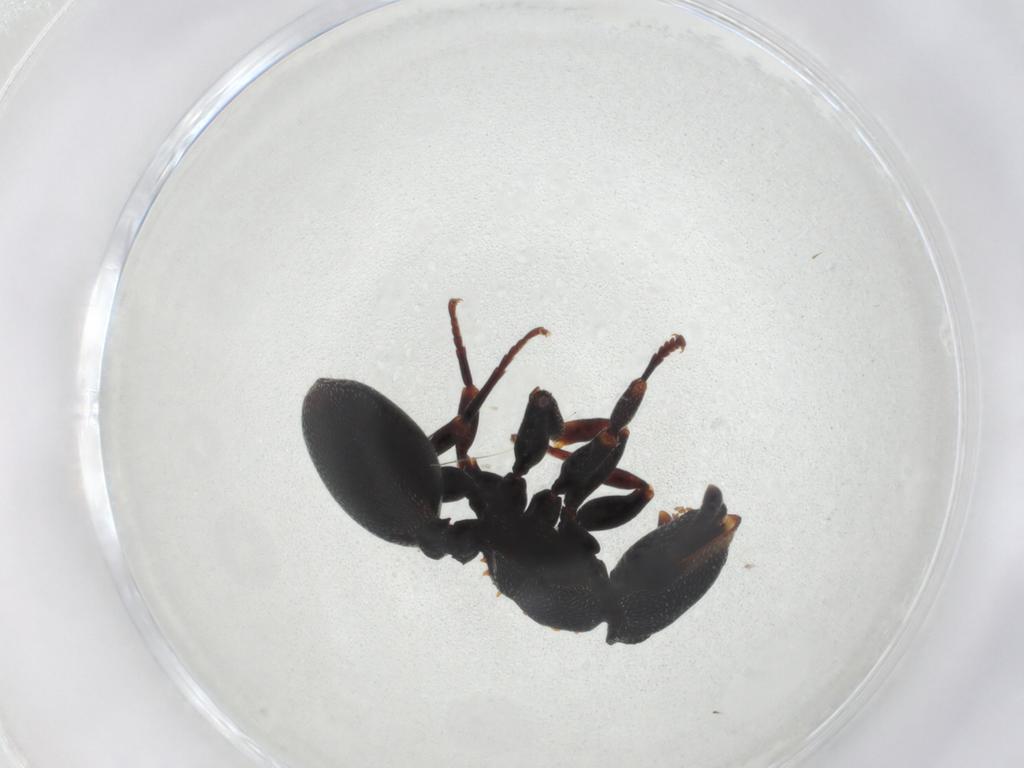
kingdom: Animalia
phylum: Arthropoda
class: Insecta
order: Hymenoptera
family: Formicidae
